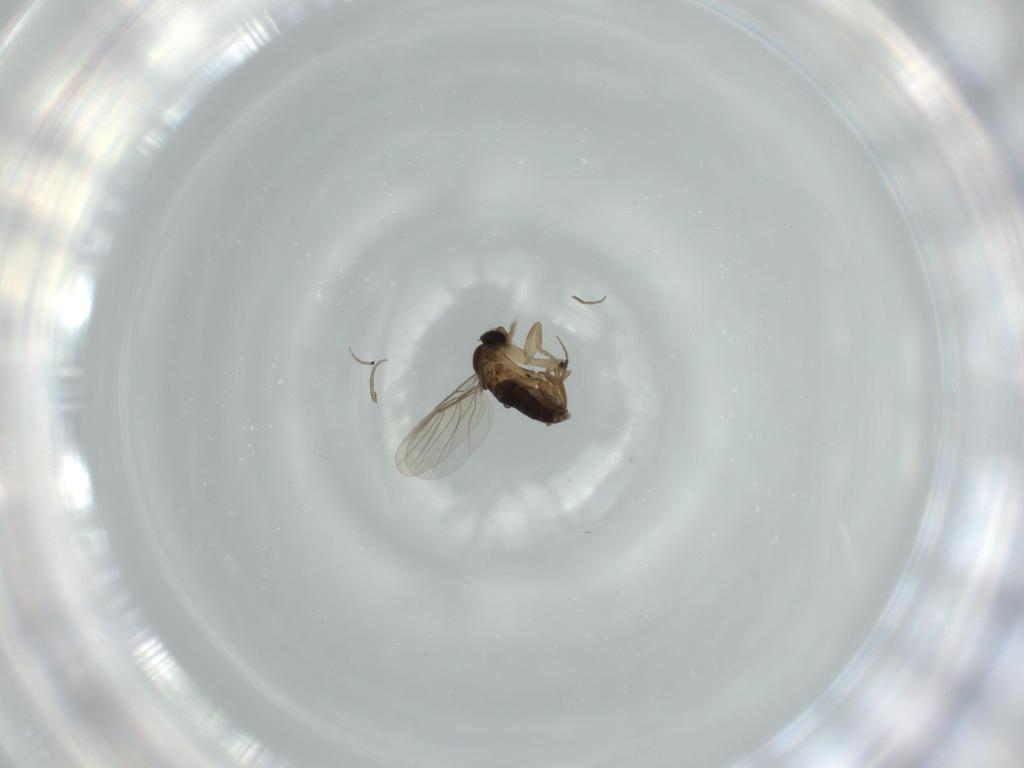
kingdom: Animalia
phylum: Arthropoda
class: Insecta
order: Diptera
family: Phoridae
